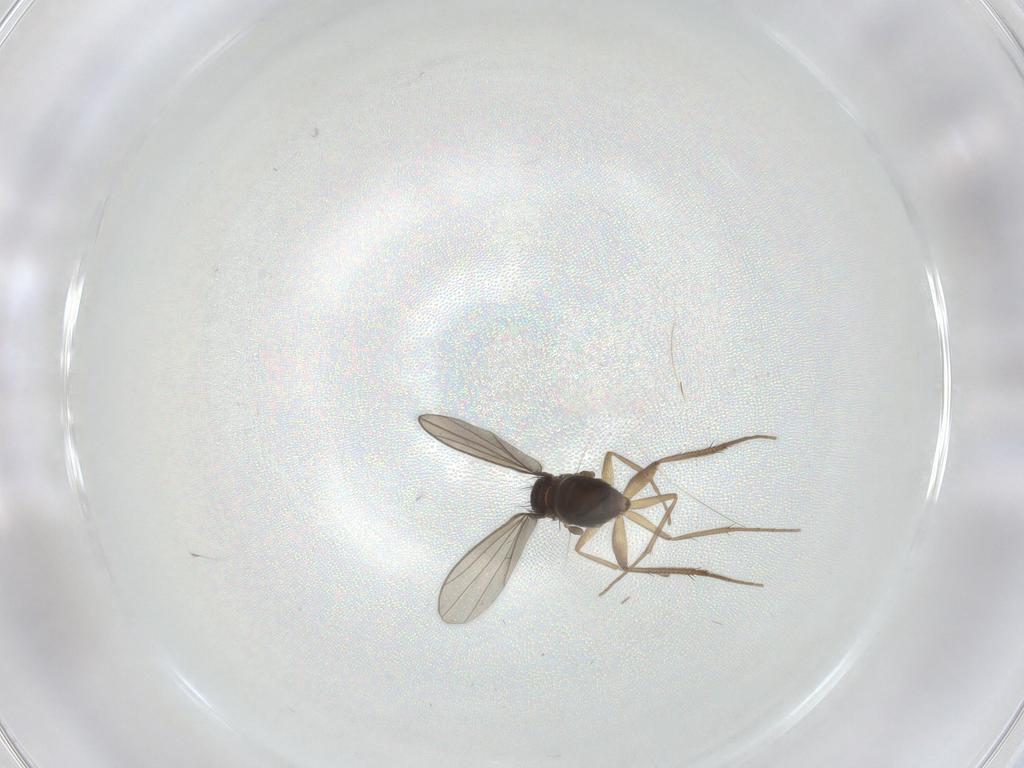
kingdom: Animalia
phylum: Arthropoda
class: Insecta
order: Diptera
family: Dolichopodidae
